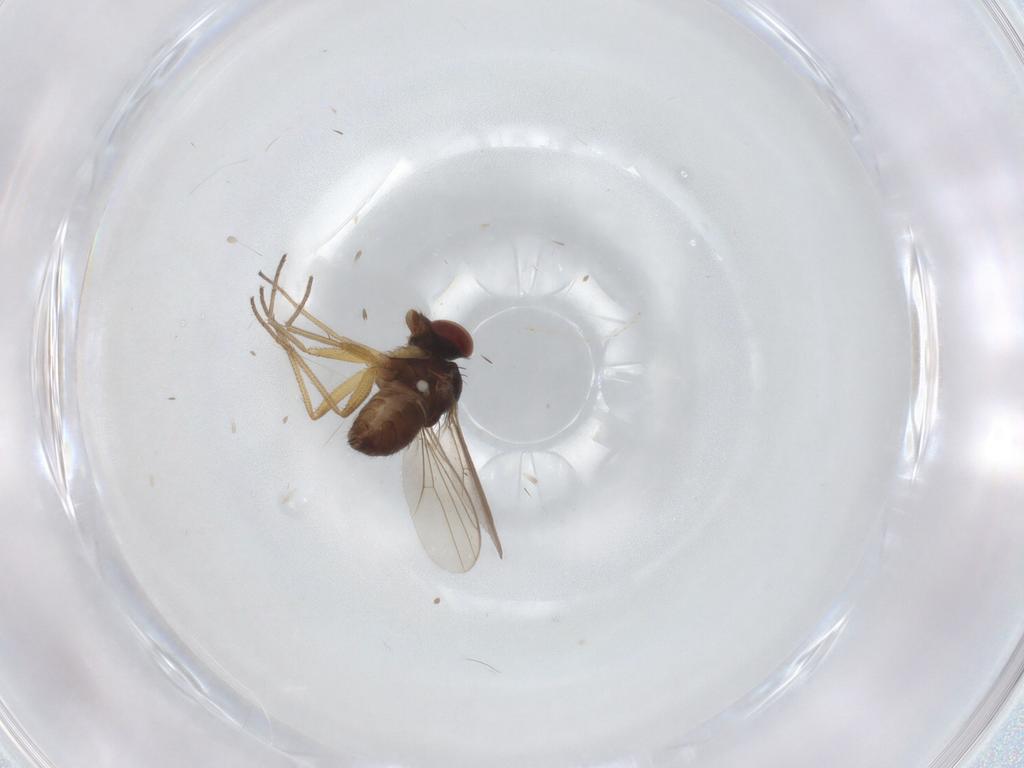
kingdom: Animalia
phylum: Arthropoda
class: Insecta
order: Diptera
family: Dolichopodidae
